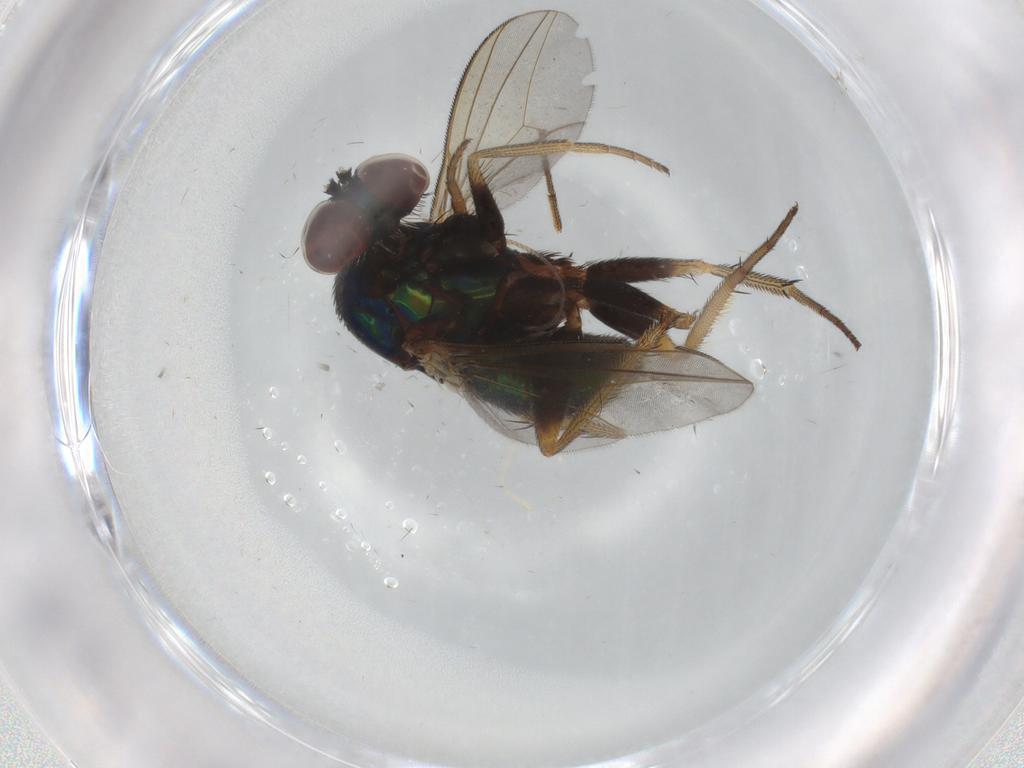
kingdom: Animalia
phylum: Arthropoda
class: Insecta
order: Diptera
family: Dolichopodidae
